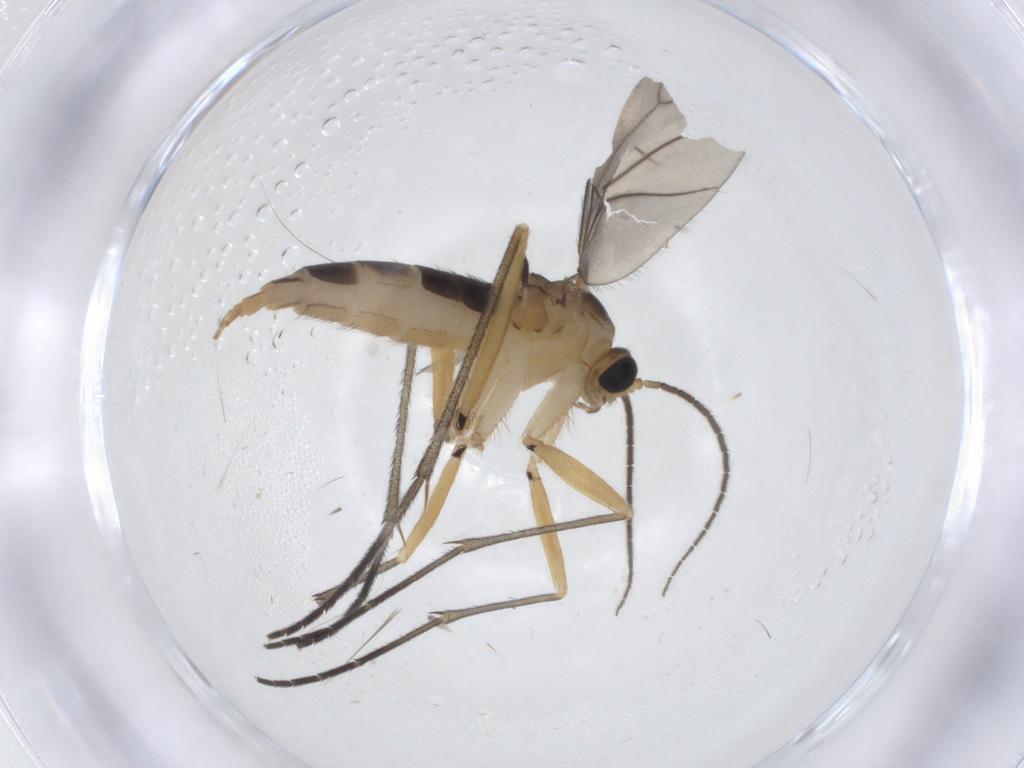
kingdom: Animalia
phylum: Arthropoda
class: Insecta
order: Diptera
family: Sciaridae
